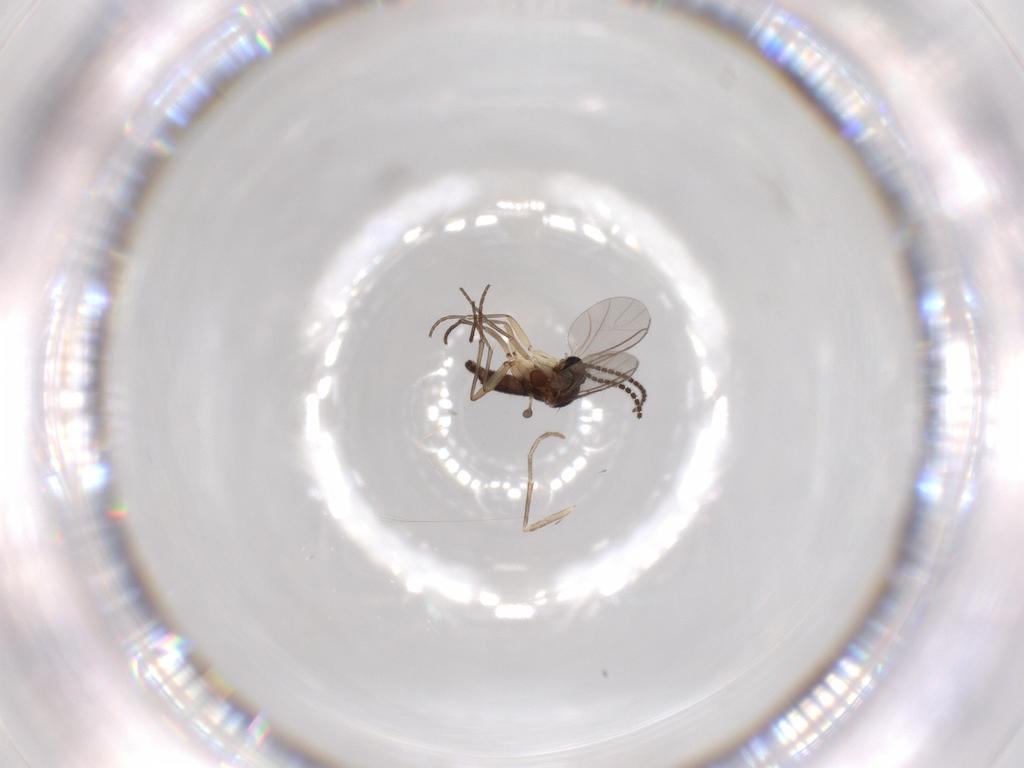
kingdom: Animalia
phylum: Arthropoda
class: Insecta
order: Diptera
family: Sciaridae
